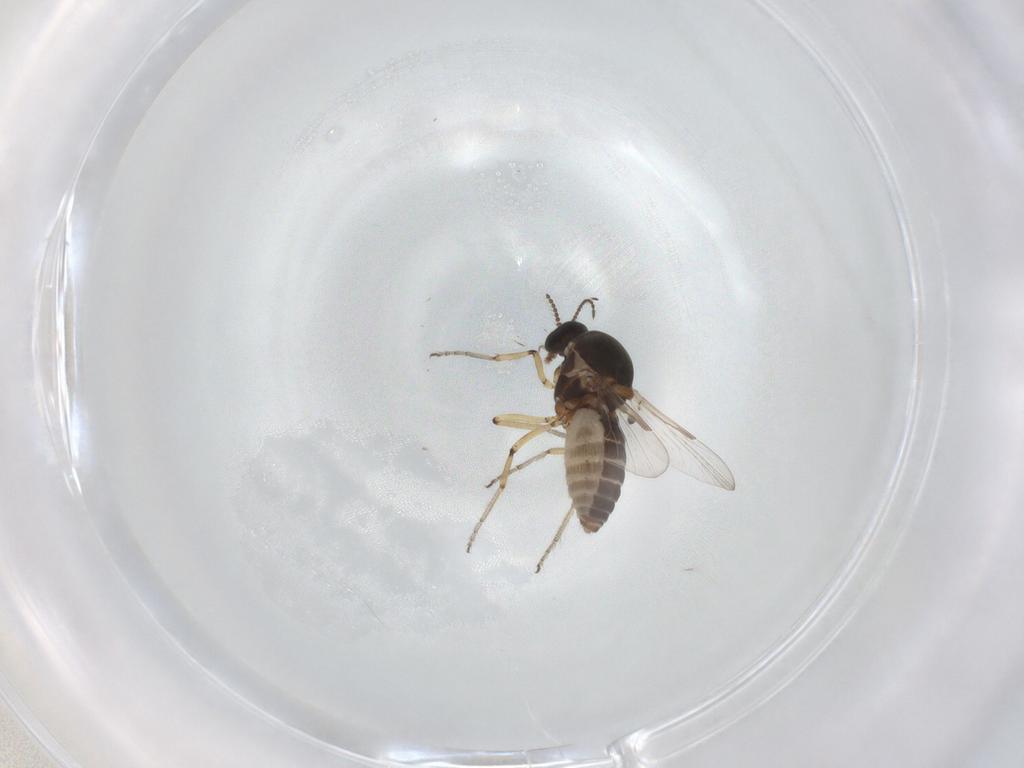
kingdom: Animalia
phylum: Arthropoda
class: Insecta
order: Diptera
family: Ceratopogonidae
